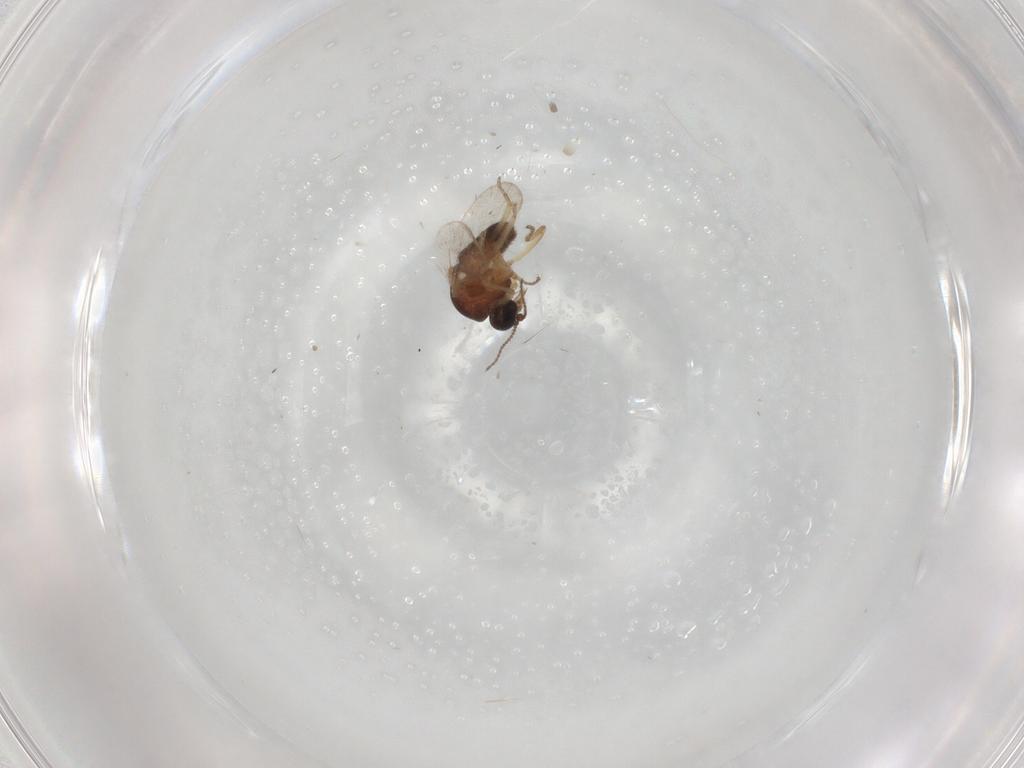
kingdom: Animalia
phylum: Arthropoda
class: Insecta
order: Diptera
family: Ceratopogonidae
